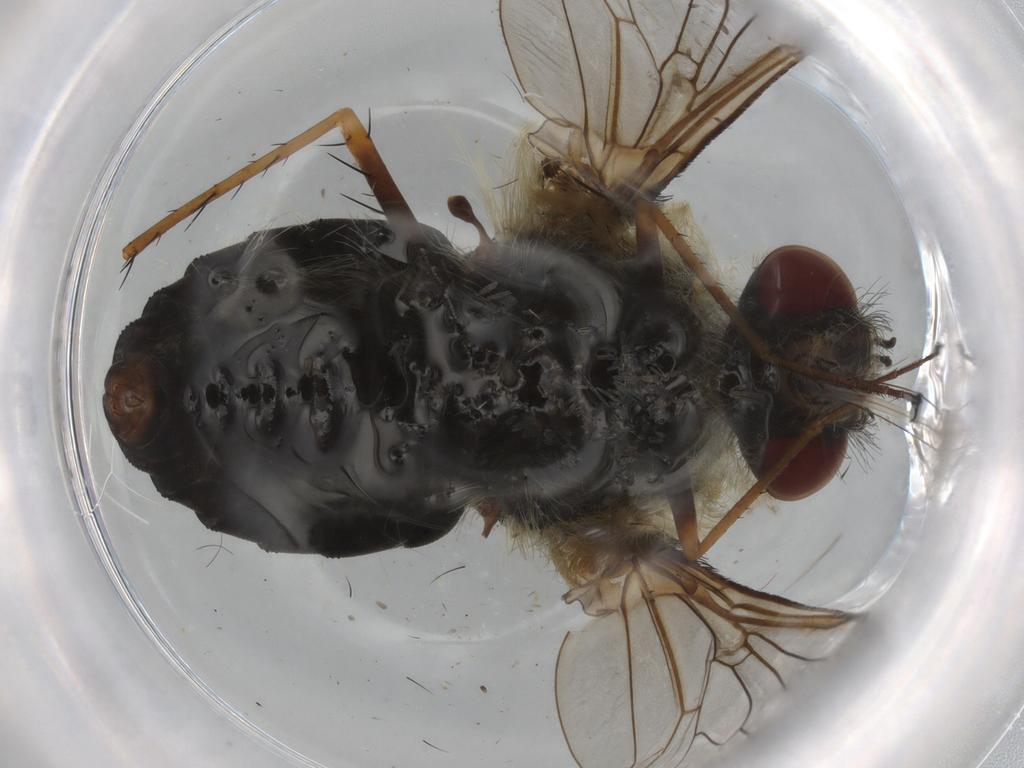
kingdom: Animalia
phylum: Arthropoda
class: Insecta
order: Diptera
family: Bombyliidae
